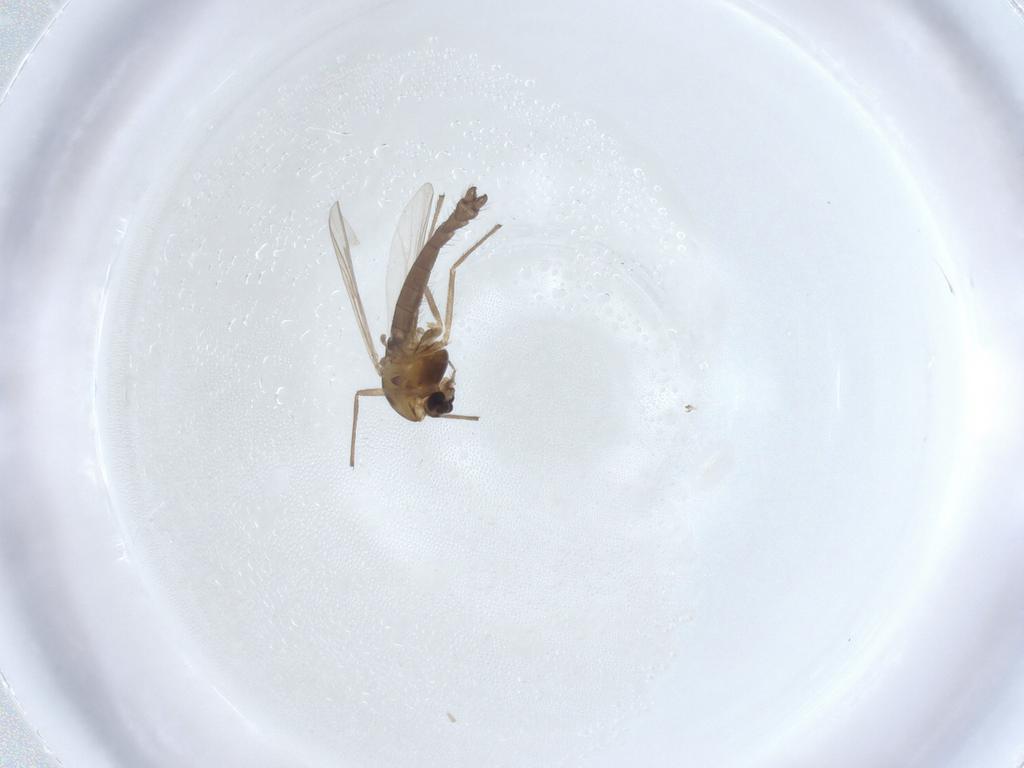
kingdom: Animalia
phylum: Arthropoda
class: Insecta
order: Diptera
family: Chironomidae
